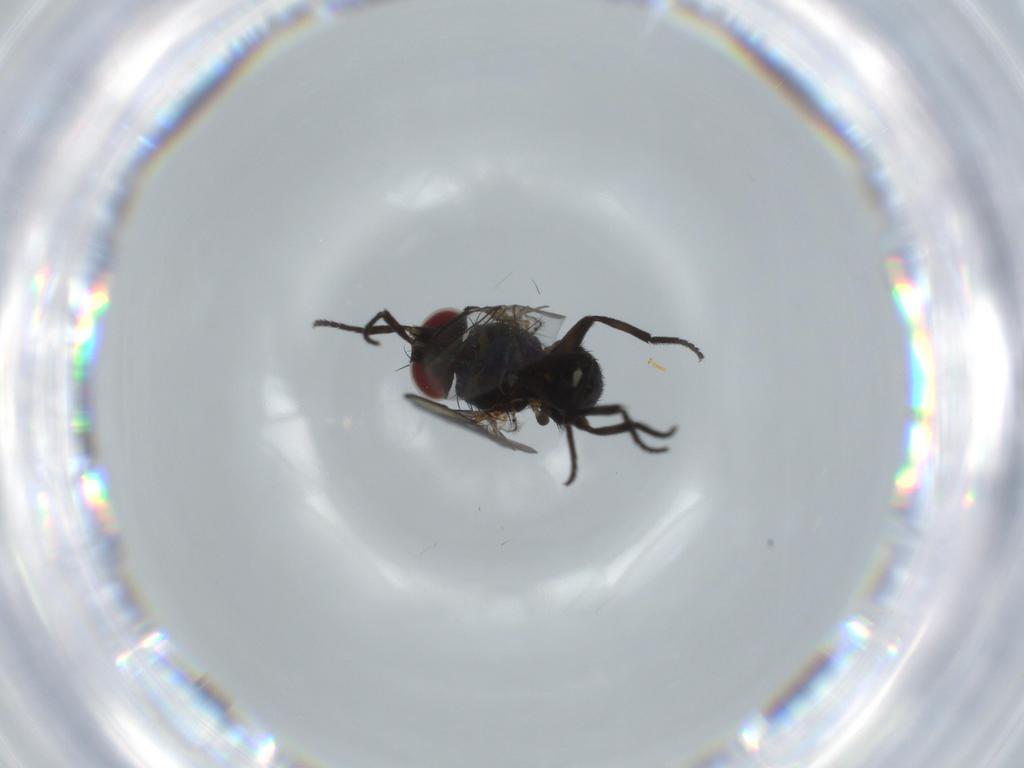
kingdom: Animalia
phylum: Arthropoda
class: Insecta
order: Diptera
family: Agromyzidae
